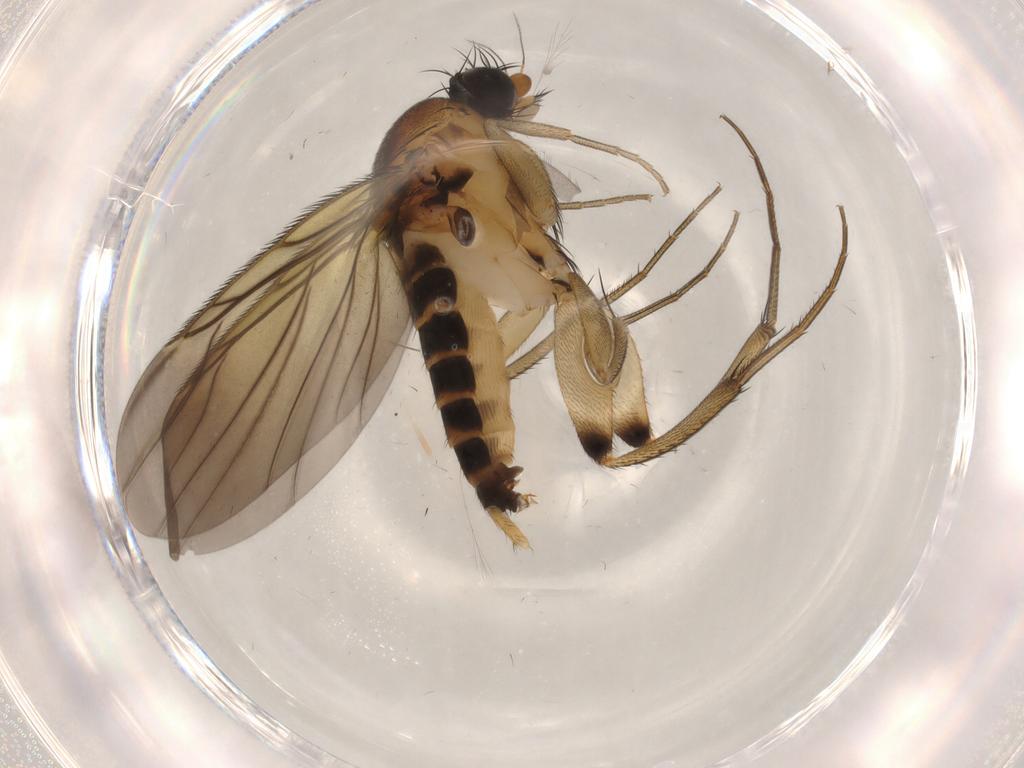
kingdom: Animalia
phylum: Arthropoda
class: Insecta
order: Diptera
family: Phoridae
